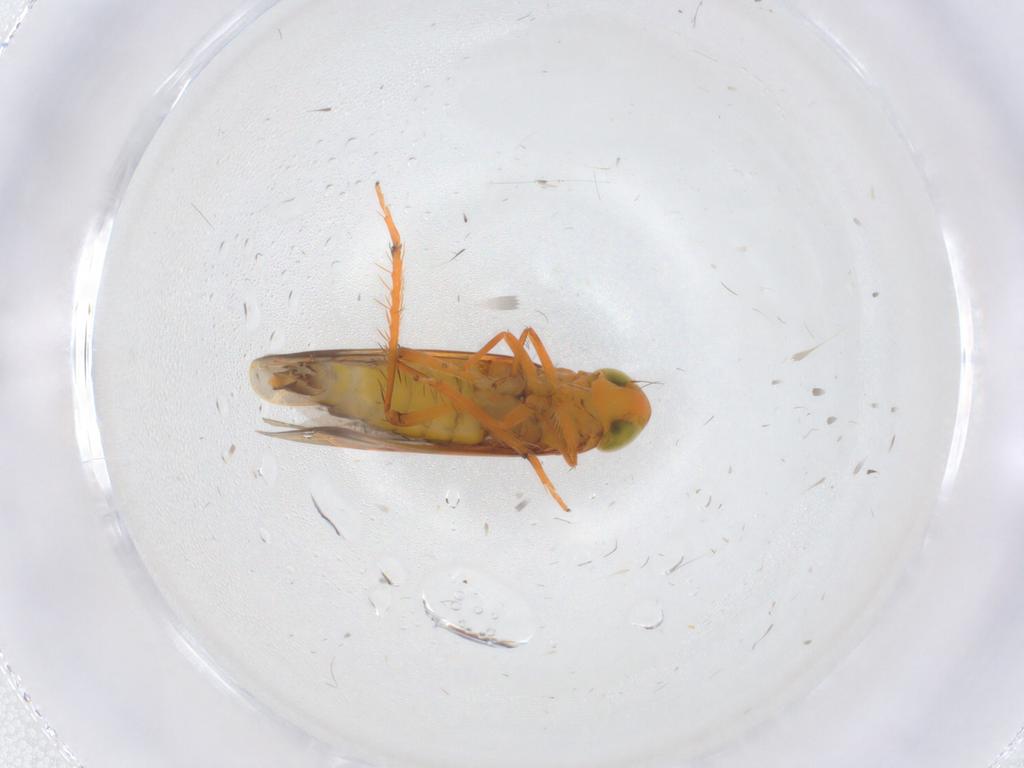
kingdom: Animalia
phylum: Arthropoda
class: Insecta
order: Hemiptera
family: Cicadellidae
